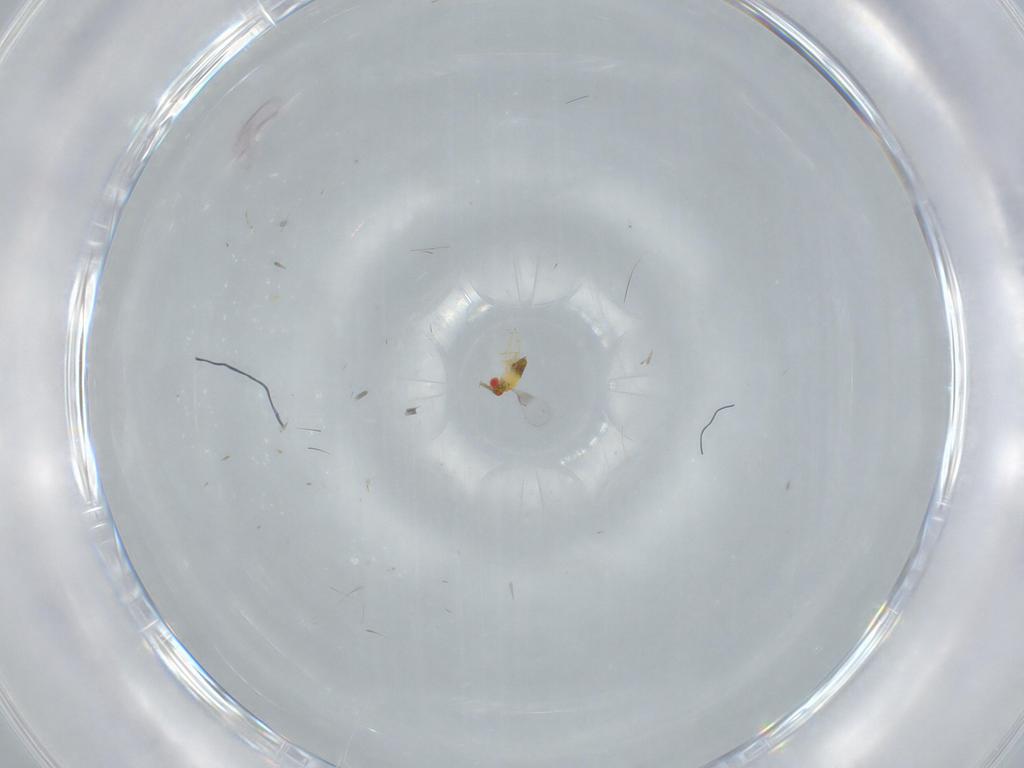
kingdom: Animalia
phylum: Arthropoda
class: Insecta
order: Hymenoptera
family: Trichogrammatidae
